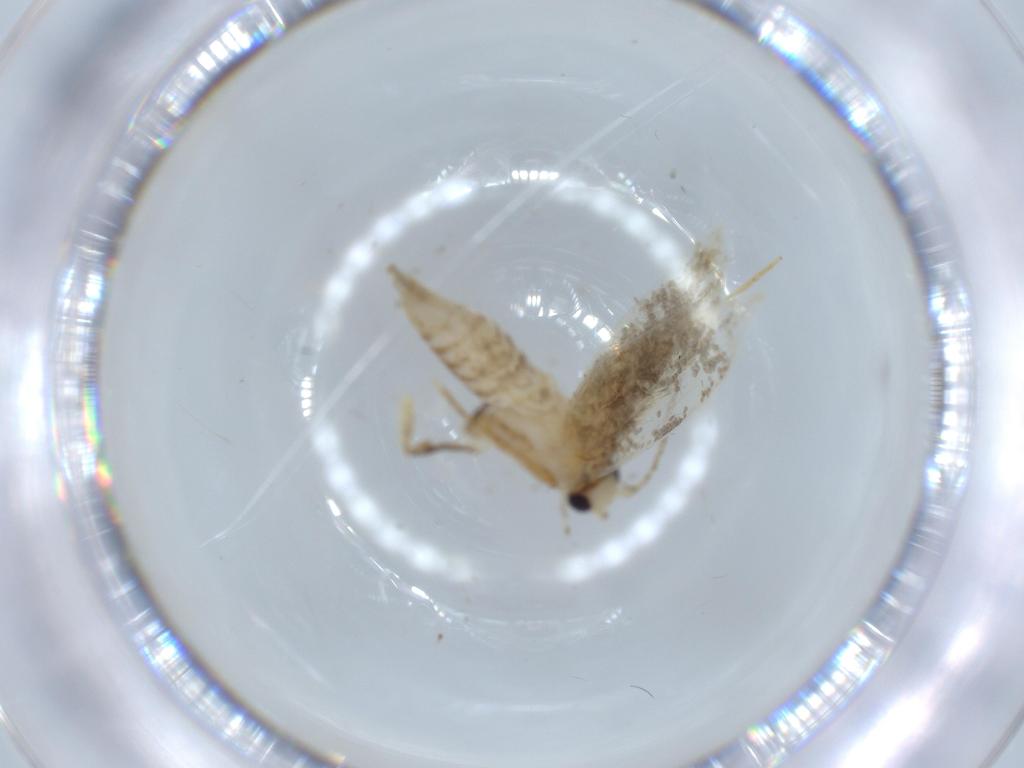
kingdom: Animalia
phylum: Arthropoda
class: Insecta
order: Lepidoptera
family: Tineidae
